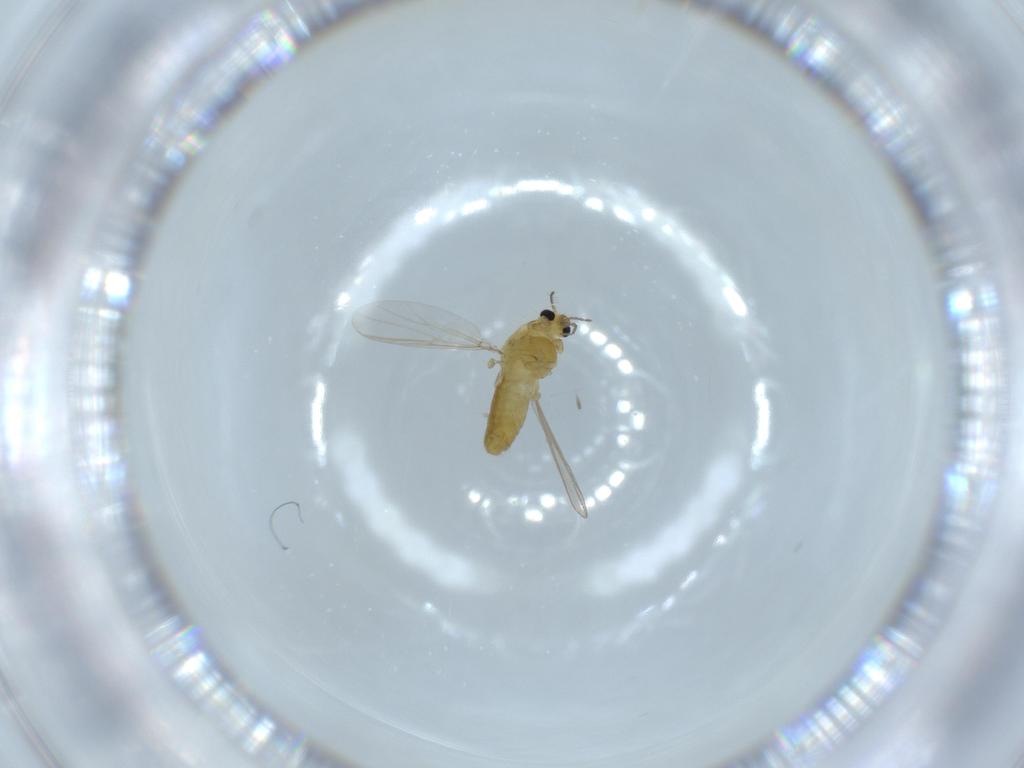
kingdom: Animalia
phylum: Arthropoda
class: Insecta
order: Diptera
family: Chironomidae
